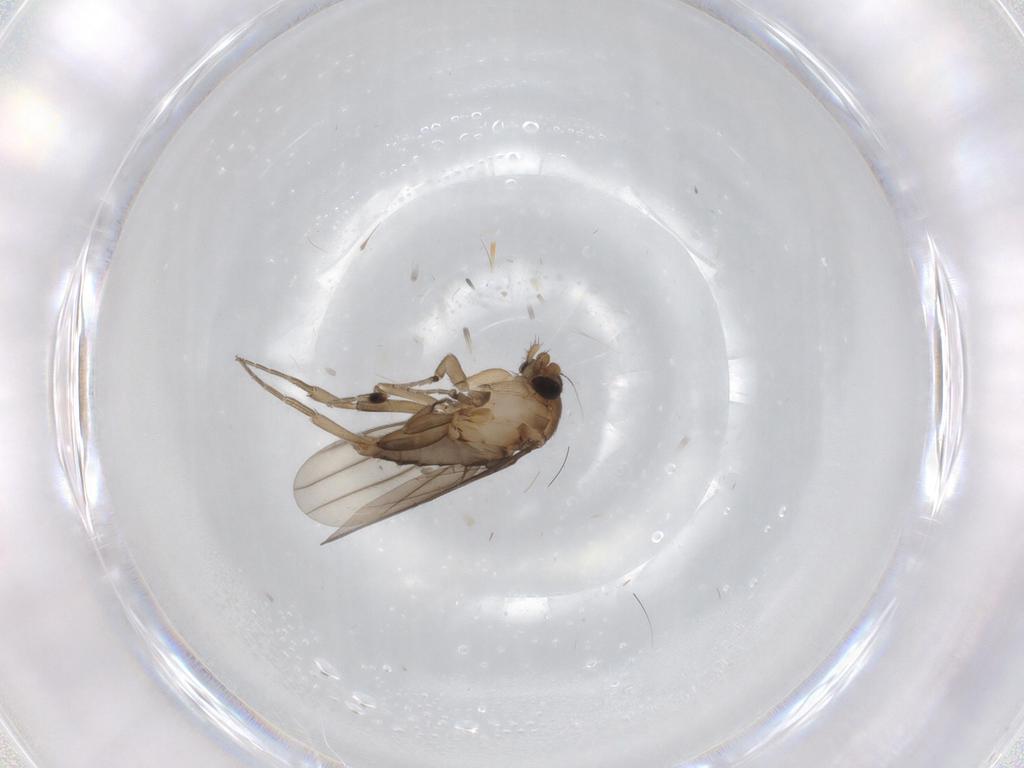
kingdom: Animalia
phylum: Arthropoda
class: Insecta
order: Diptera
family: Phoridae
